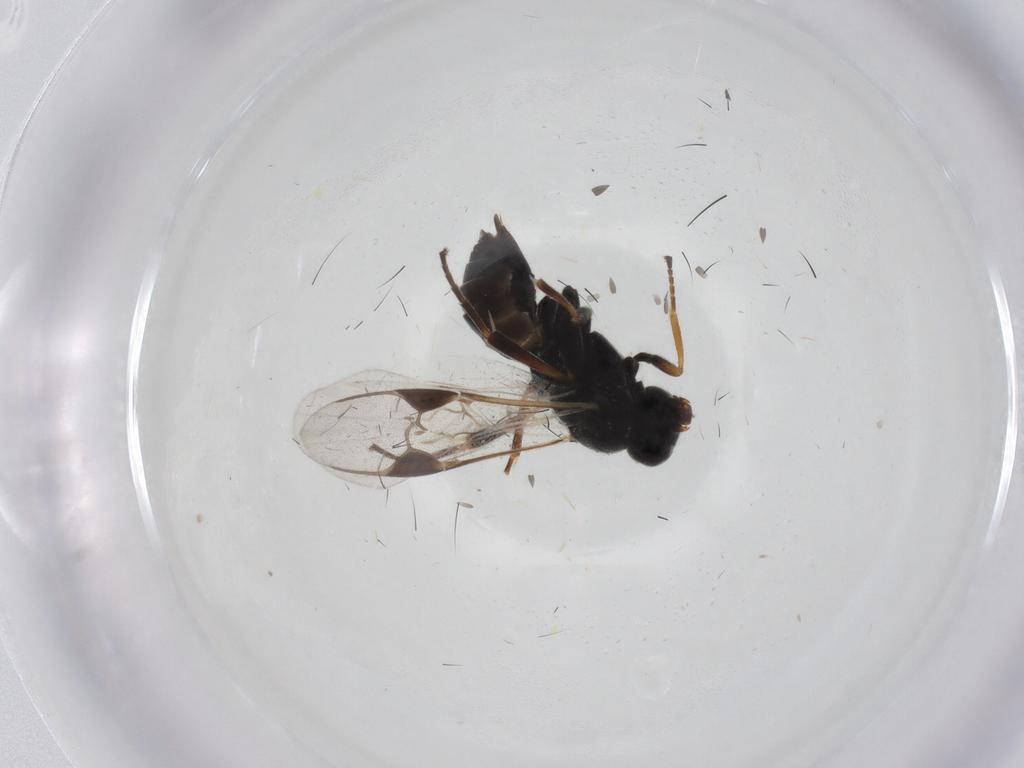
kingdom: Animalia
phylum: Arthropoda
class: Insecta
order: Hymenoptera
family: Braconidae
